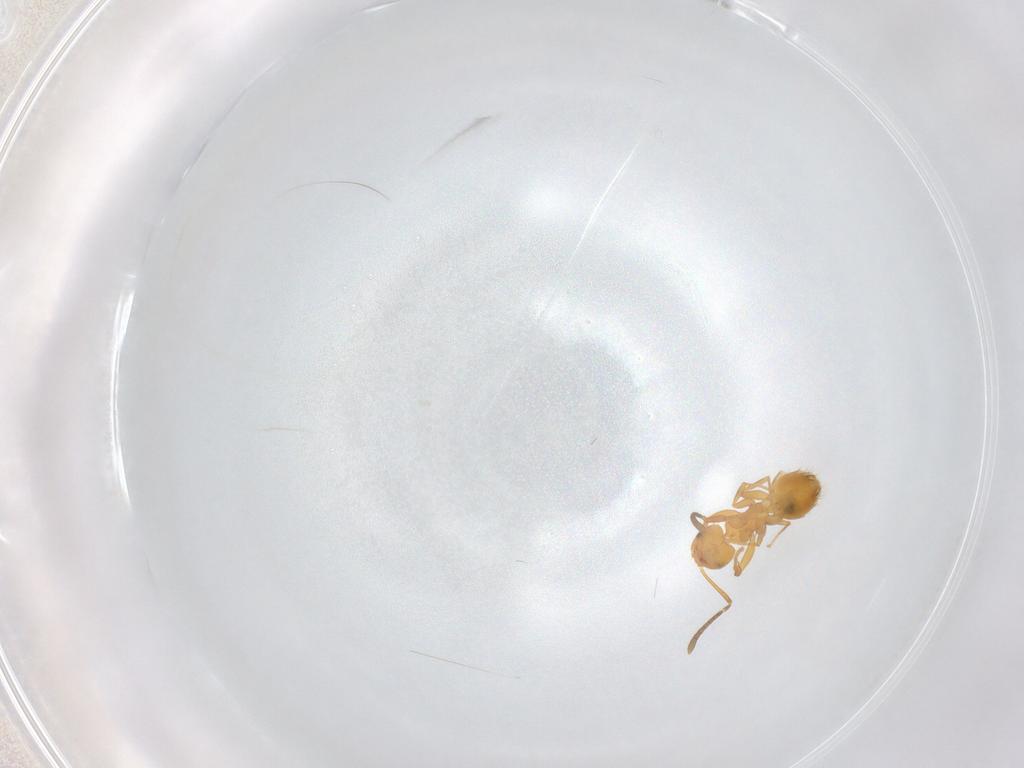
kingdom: Animalia
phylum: Arthropoda
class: Insecta
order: Hymenoptera
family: Formicidae
